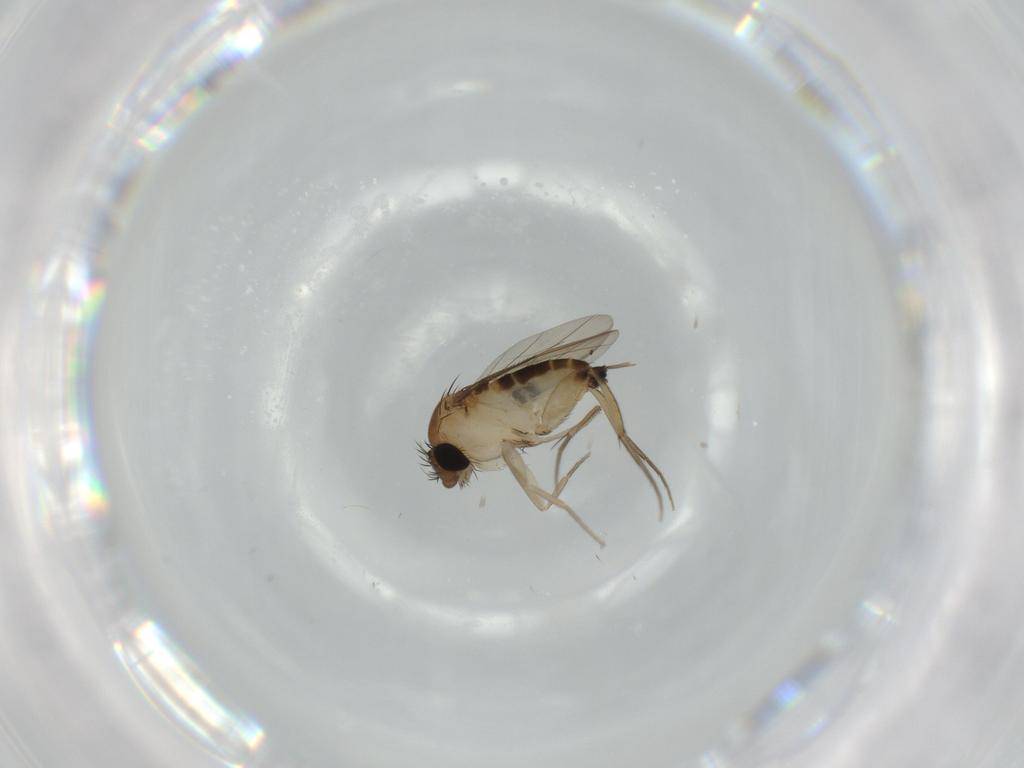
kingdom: Animalia
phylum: Arthropoda
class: Insecta
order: Diptera
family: Phoridae
